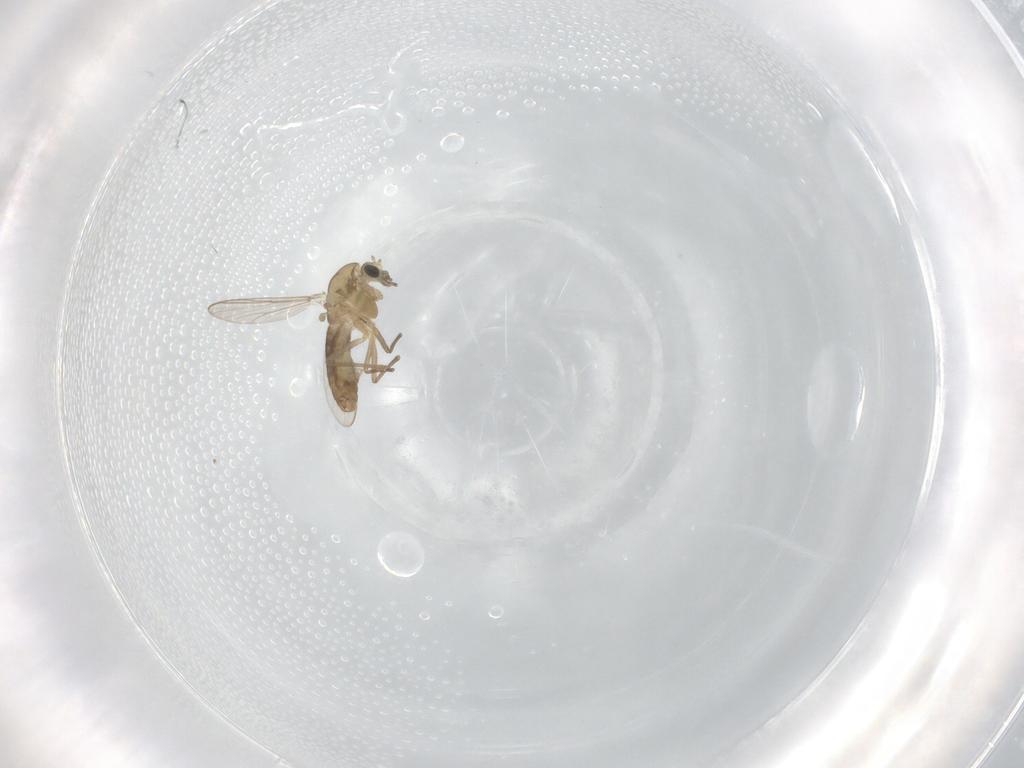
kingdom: Animalia
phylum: Arthropoda
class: Insecta
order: Diptera
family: Chironomidae
